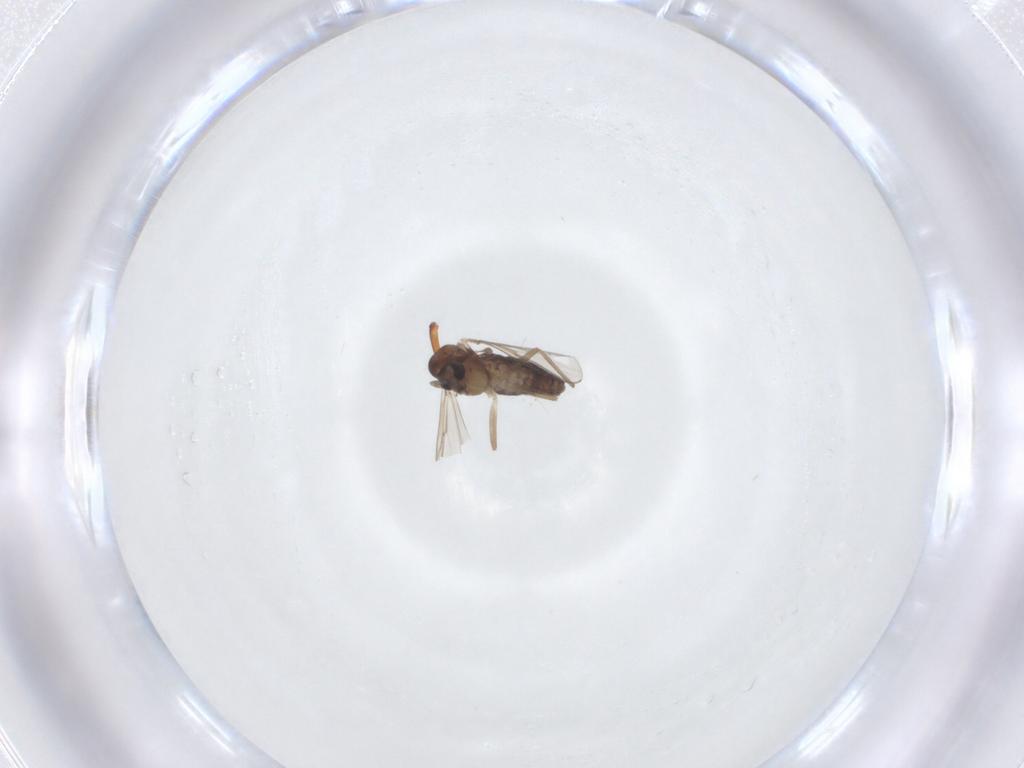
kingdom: Animalia
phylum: Arthropoda
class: Insecta
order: Diptera
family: Chironomidae
